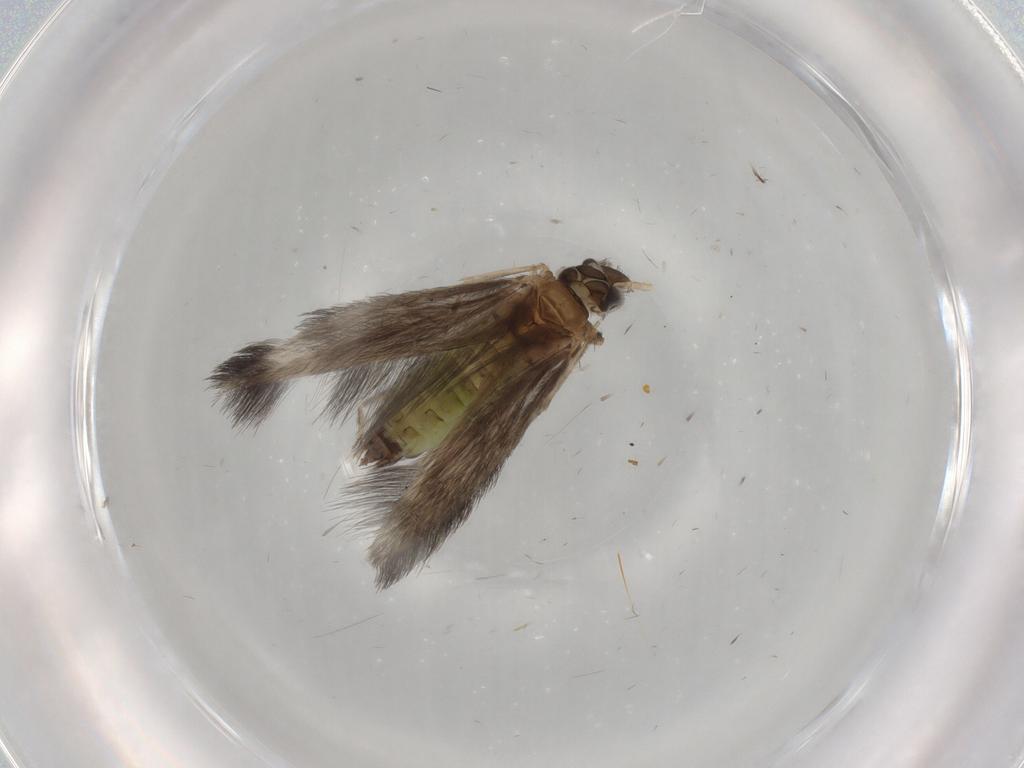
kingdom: Animalia
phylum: Arthropoda
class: Insecta
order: Trichoptera
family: Hydroptilidae
